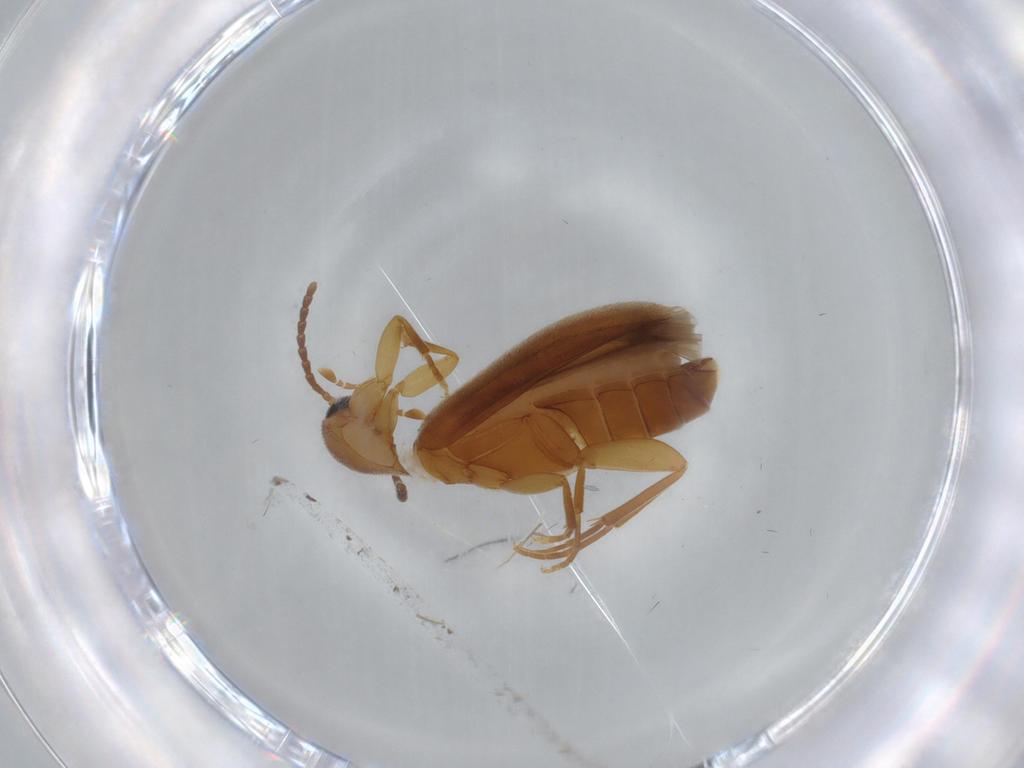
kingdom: Animalia
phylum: Arthropoda
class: Insecta
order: Coleoptera
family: Scraptiidae
